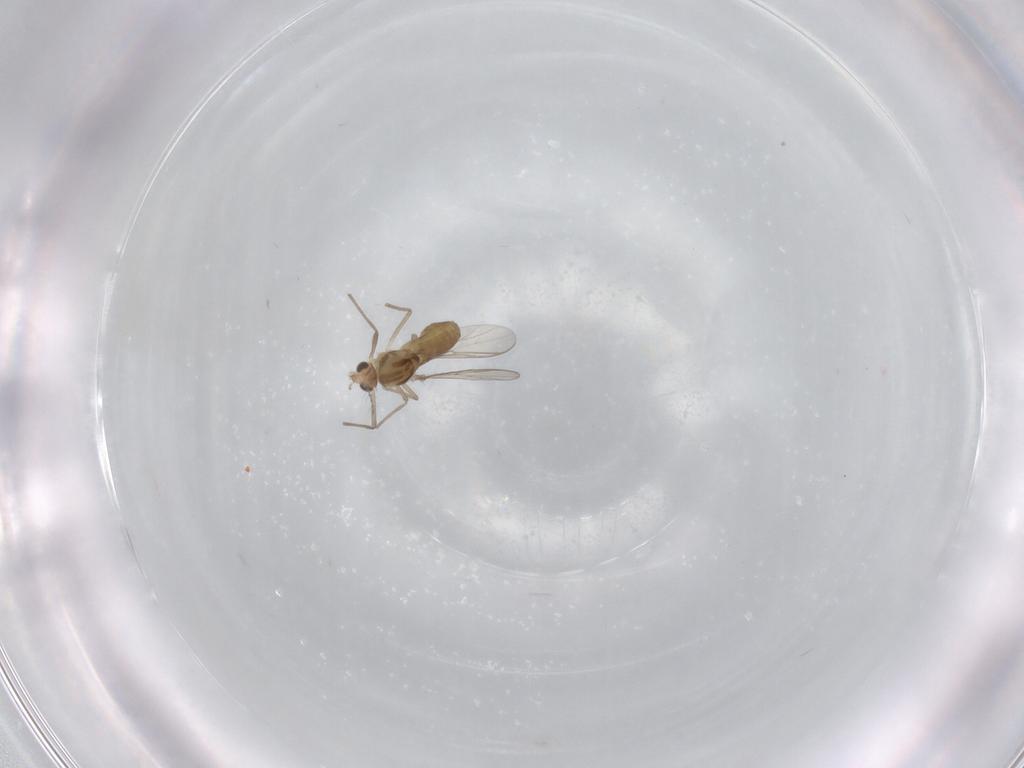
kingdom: Animalia
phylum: Arthropoda
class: Insecta
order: Diptera
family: Chironomidae
